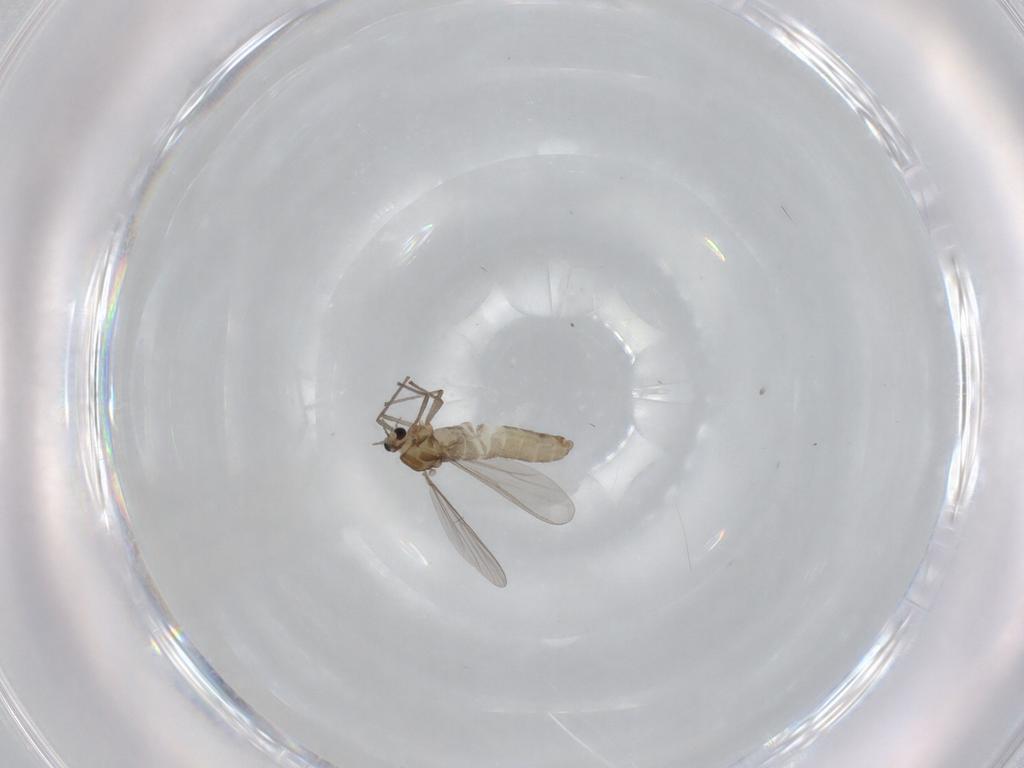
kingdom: Animalia
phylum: Arthropoda
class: Insecta
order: Diptera
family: Chironomidae
